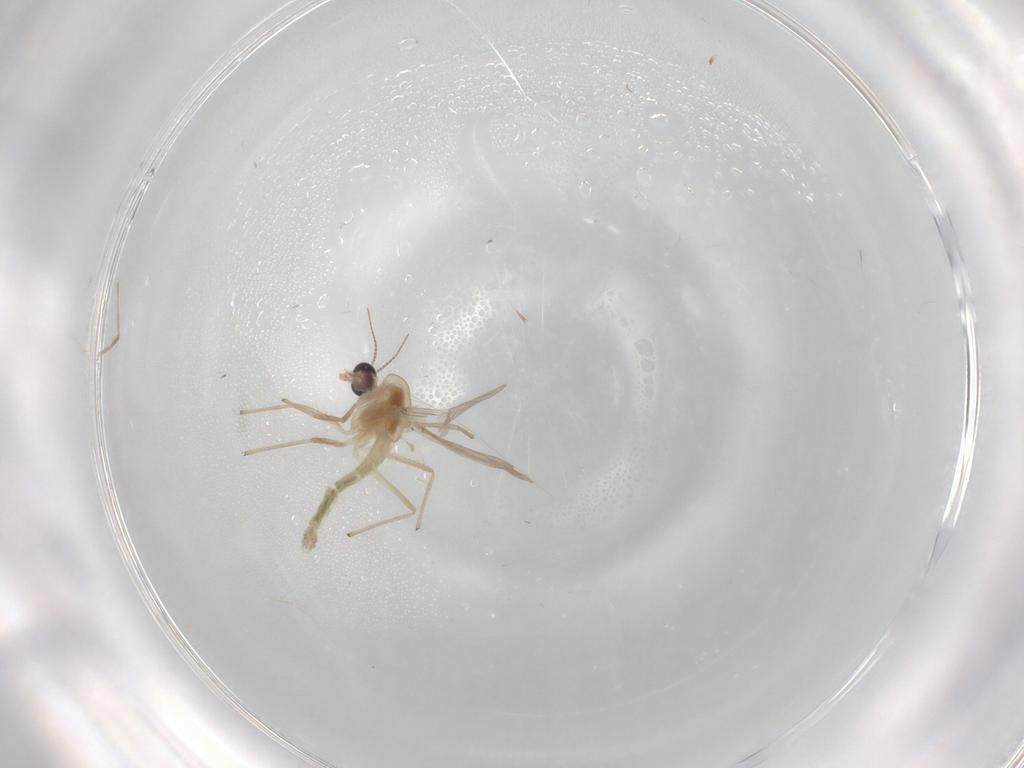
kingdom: Animalia
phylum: Arthropoda
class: Insecta
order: Diptera
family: Chironomidae
